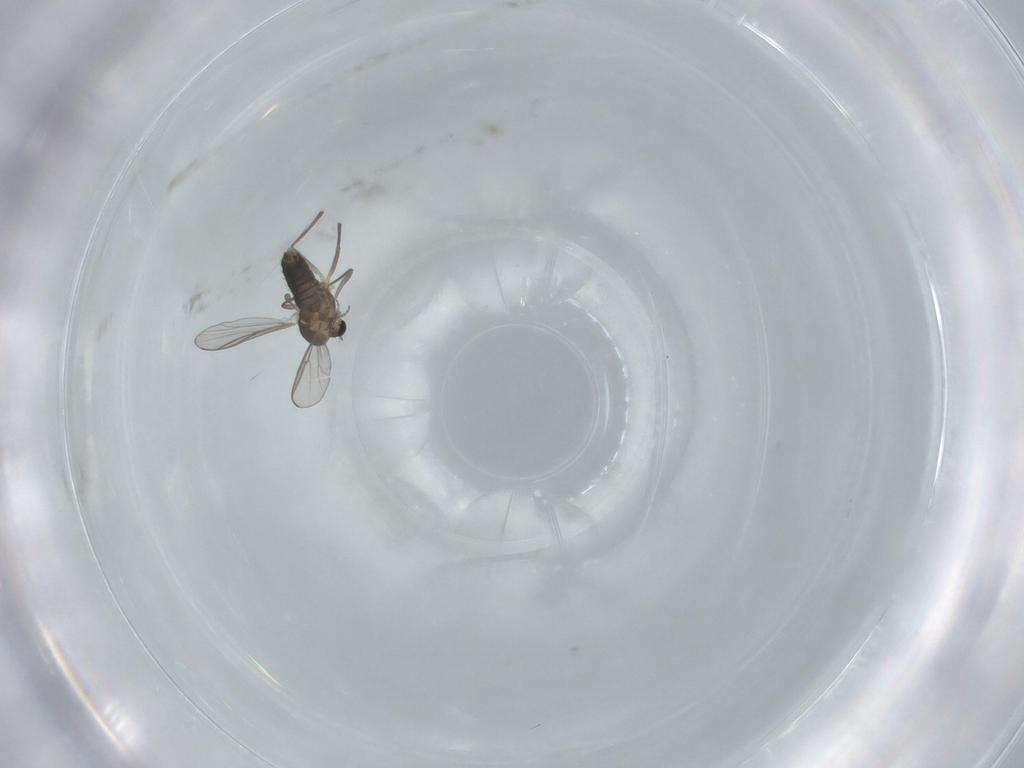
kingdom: Animalia
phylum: Arthropoda
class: Insecta
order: Diptera
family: Chironomidae
